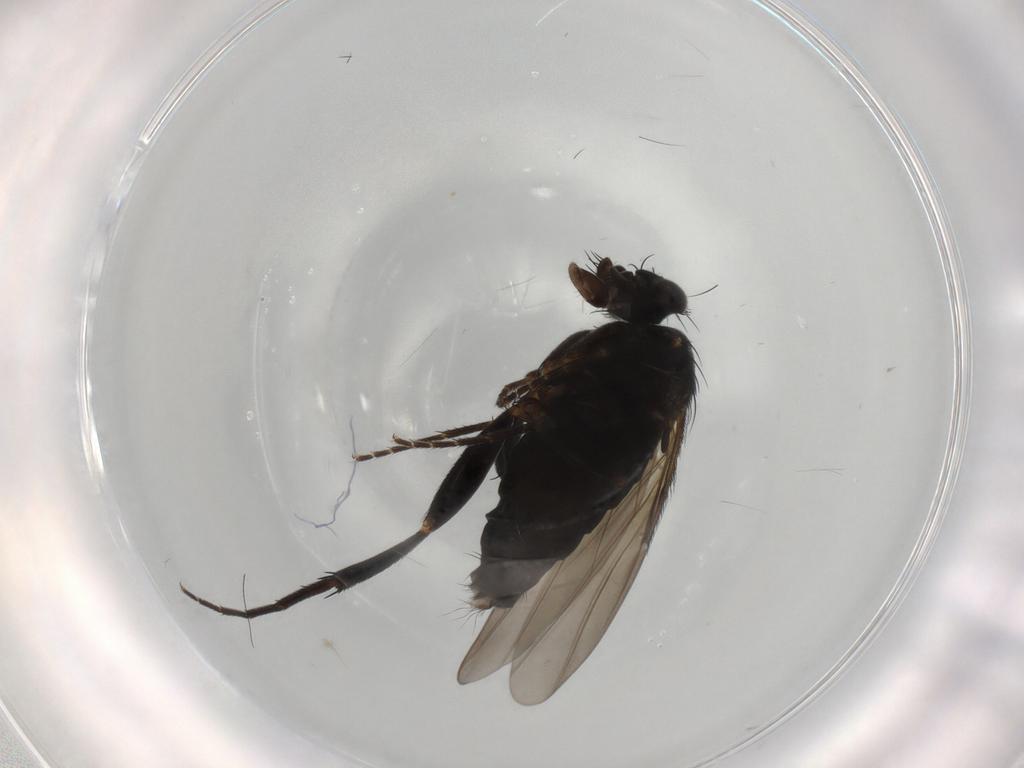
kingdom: Animalia
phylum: Arthropoda
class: Insecta
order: Diptera
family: Phoridae
